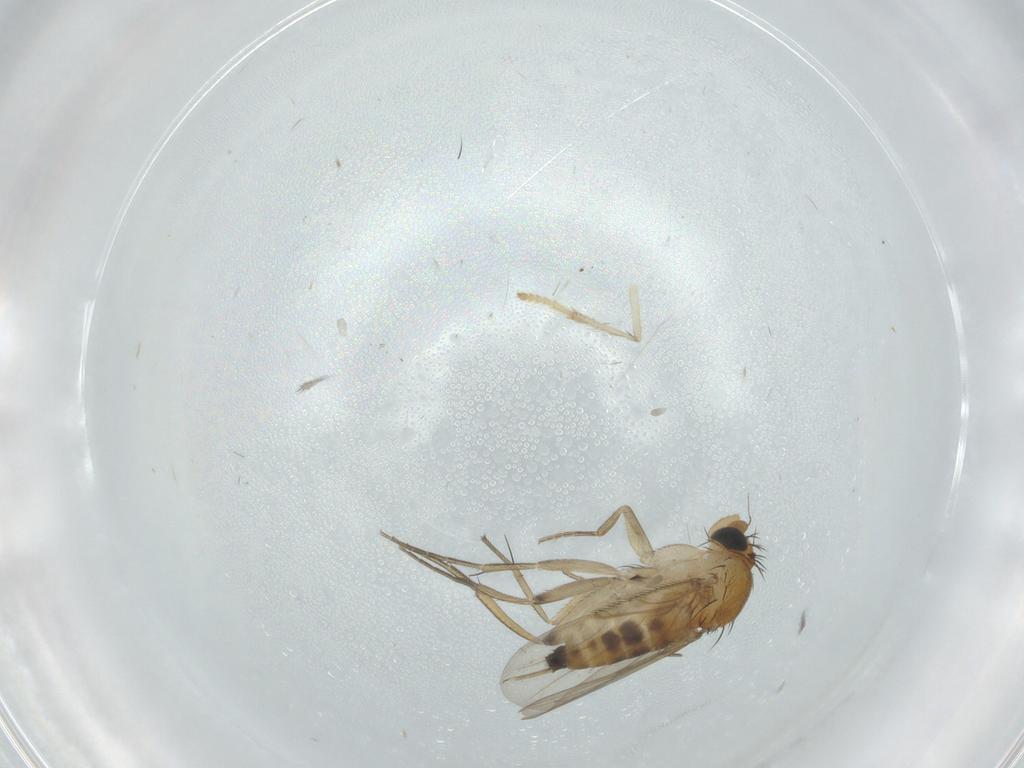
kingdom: Animalia
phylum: Arthropoda
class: Insecta
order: Diptera
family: Phoridae
